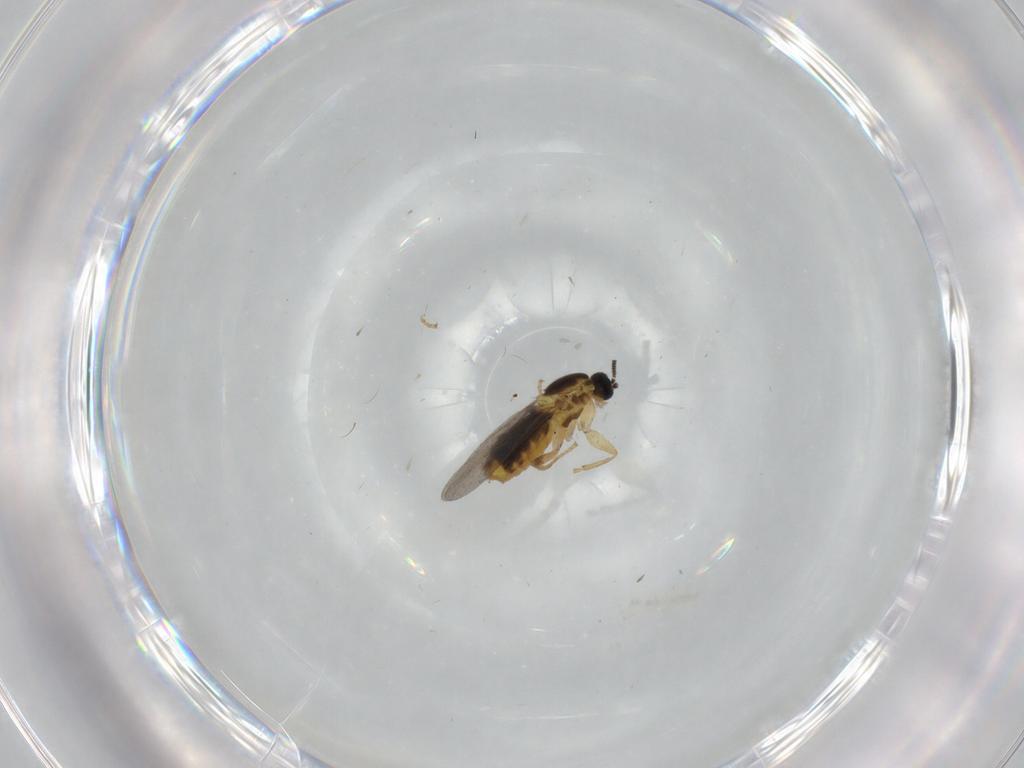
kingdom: Animalia
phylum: Arthropoda
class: Insecta
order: Diptera
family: Scatopsidae
